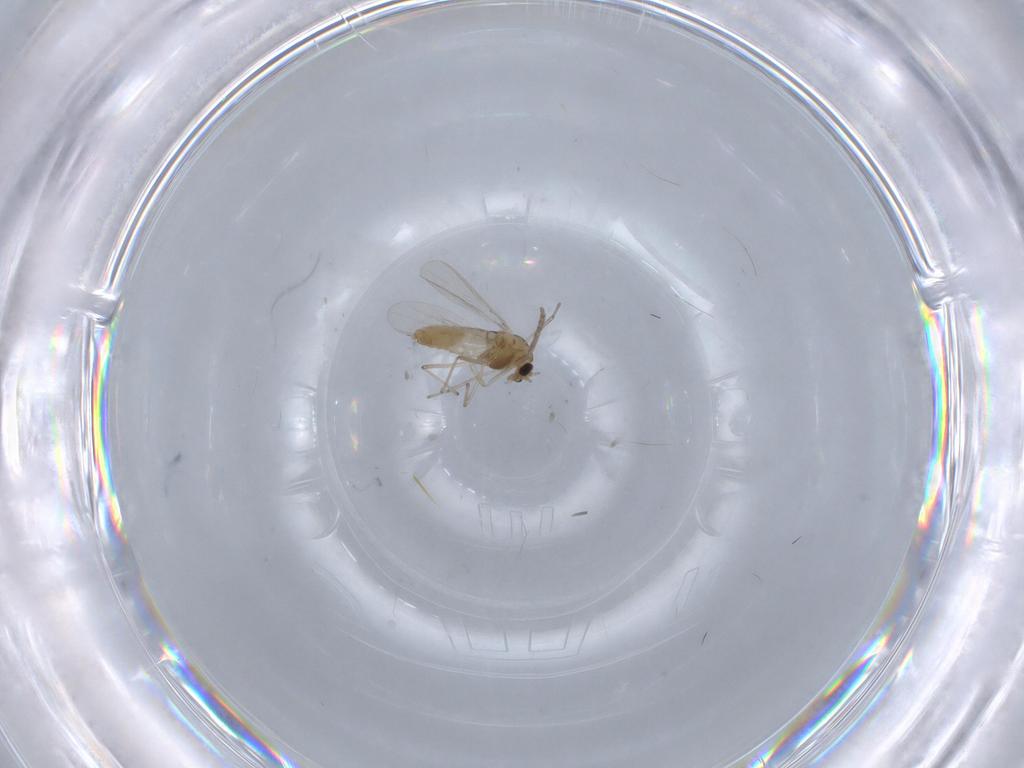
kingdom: Animalia
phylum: Arthropoda
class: Insecta
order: Diptera
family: Chironomidae
